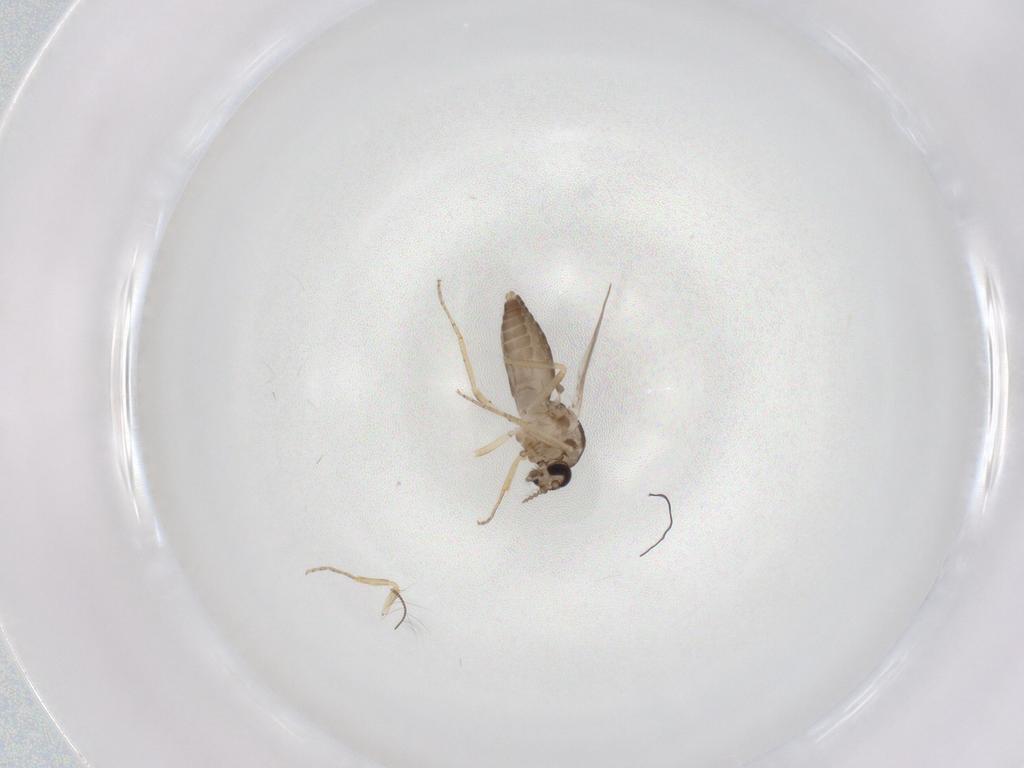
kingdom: Animalia
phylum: Arthropoda
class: Insecta
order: Diptera
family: Ceratopogonidae
